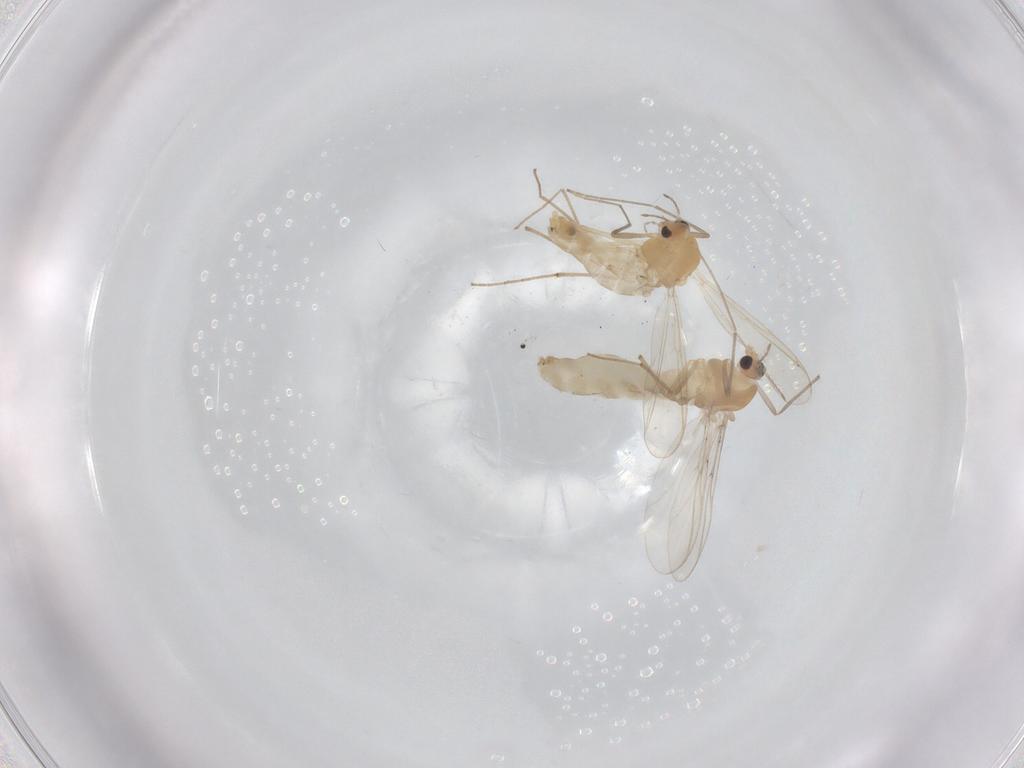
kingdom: Animalia
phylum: Arthropoda
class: Insecta
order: Diptera
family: Chironomidae
